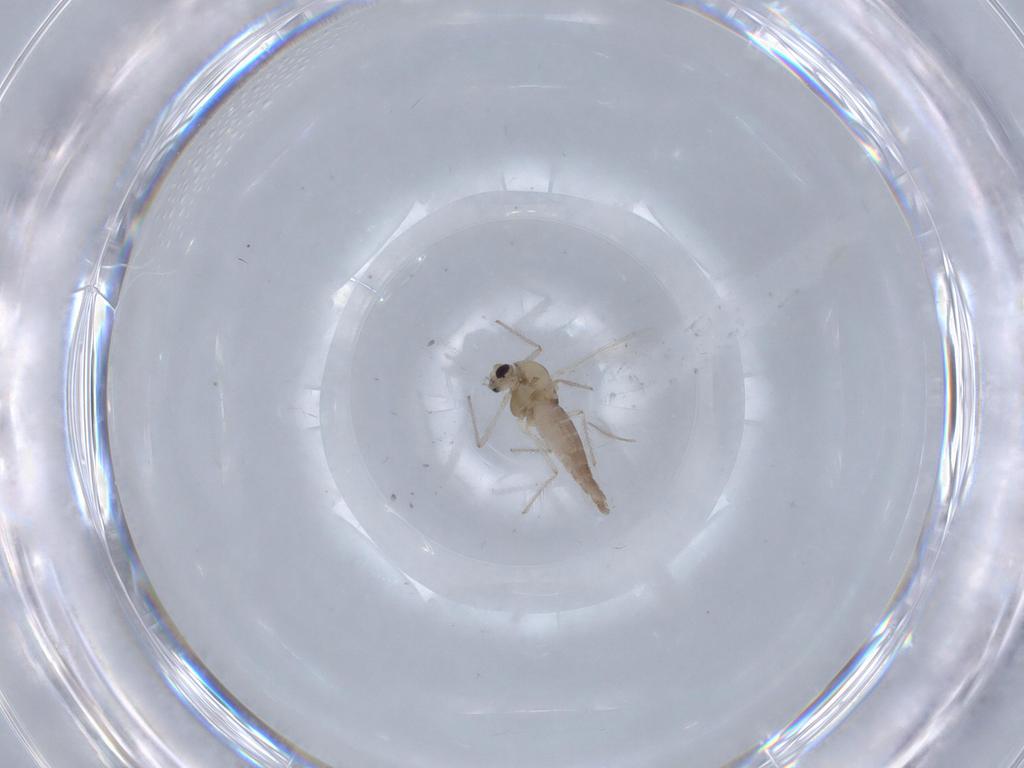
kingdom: Animalia
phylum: Arthropoda
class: Insecta
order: Diptera
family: Chironomidae
